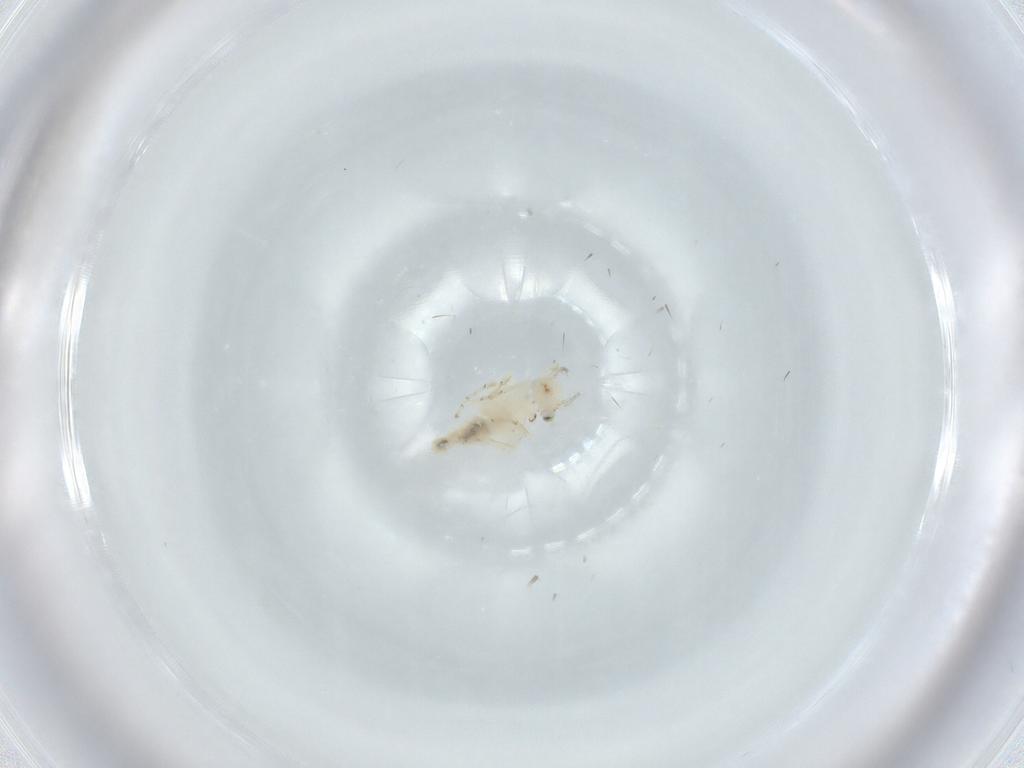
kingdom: Animalia
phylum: Arthropoda
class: Insecta
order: Psocodea
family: Lepidopsocidae
